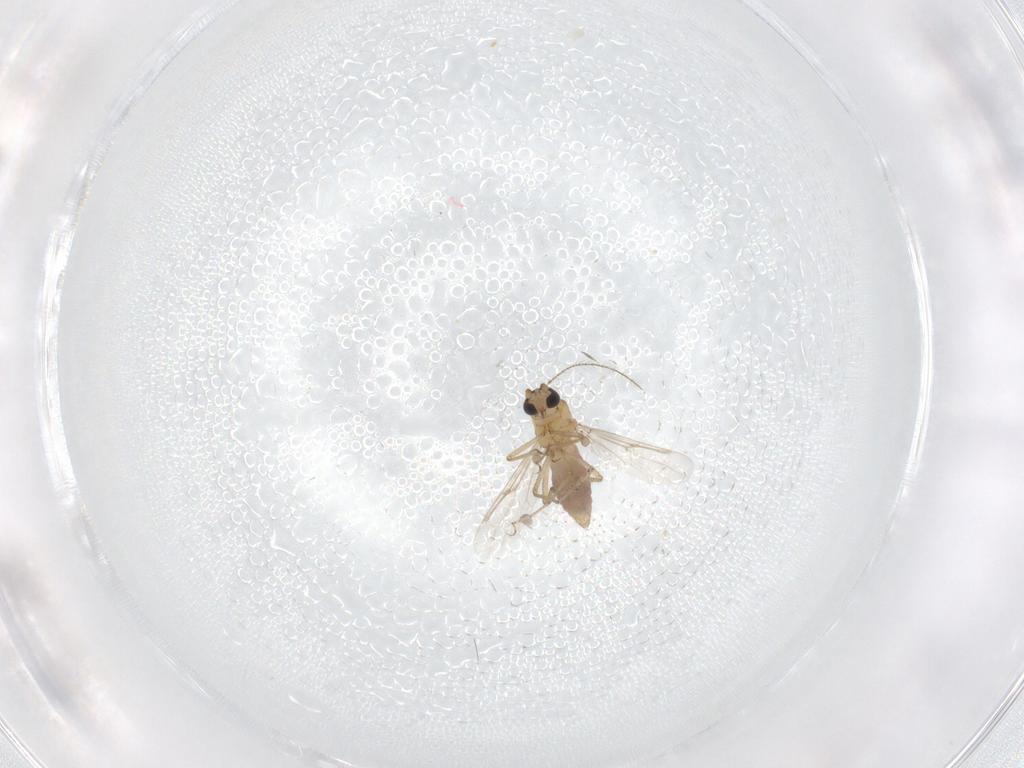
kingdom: Animalia
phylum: Arthropoda
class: Insecta
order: Diptera
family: Ceratopogonidae
